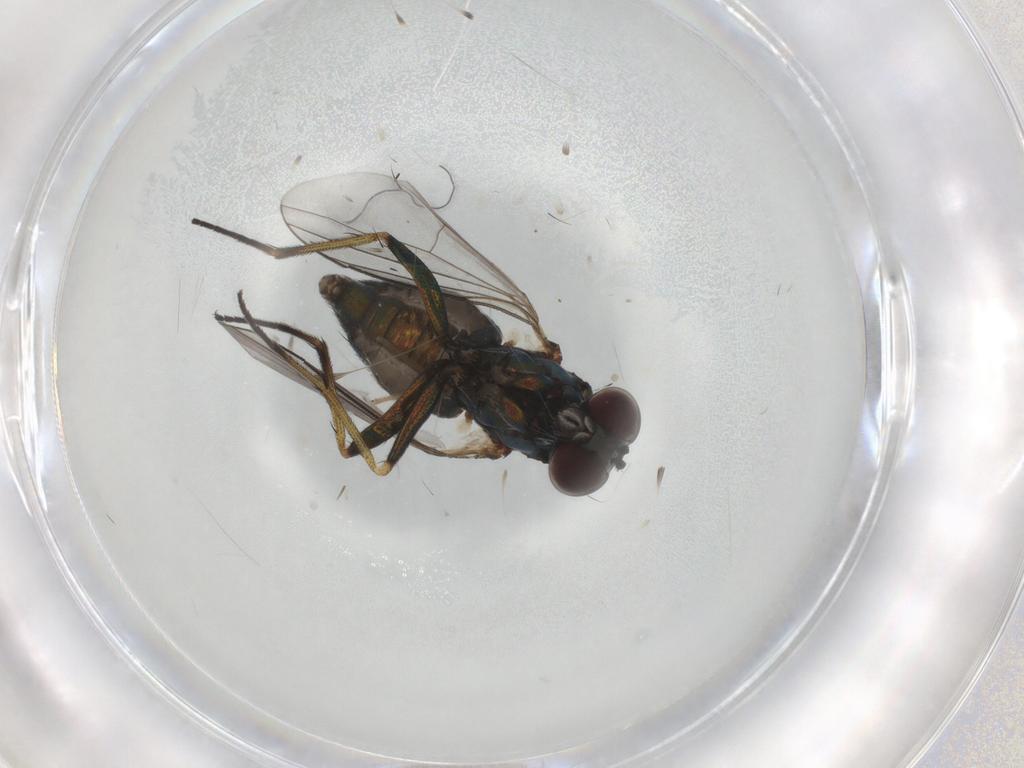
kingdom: Animalia
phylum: Arthropoda
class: Insecta
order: Diptera
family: Dolichopodidae
